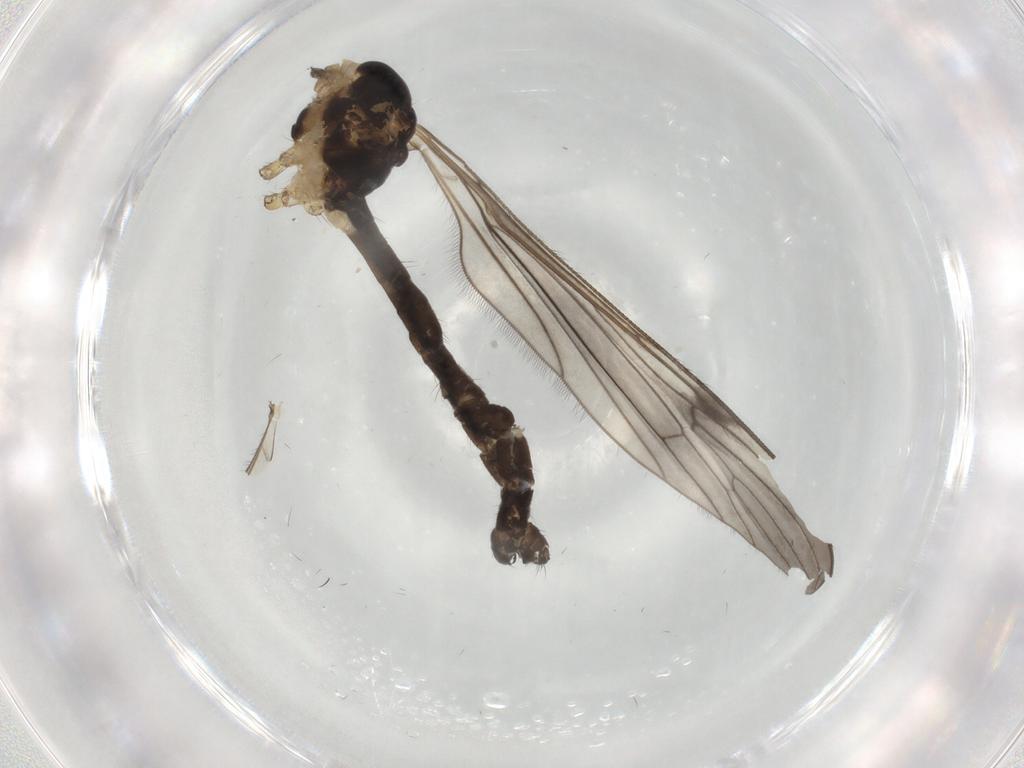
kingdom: Animalia
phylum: Arthropoda
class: Insecta
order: Diptera
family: Limoniidae
